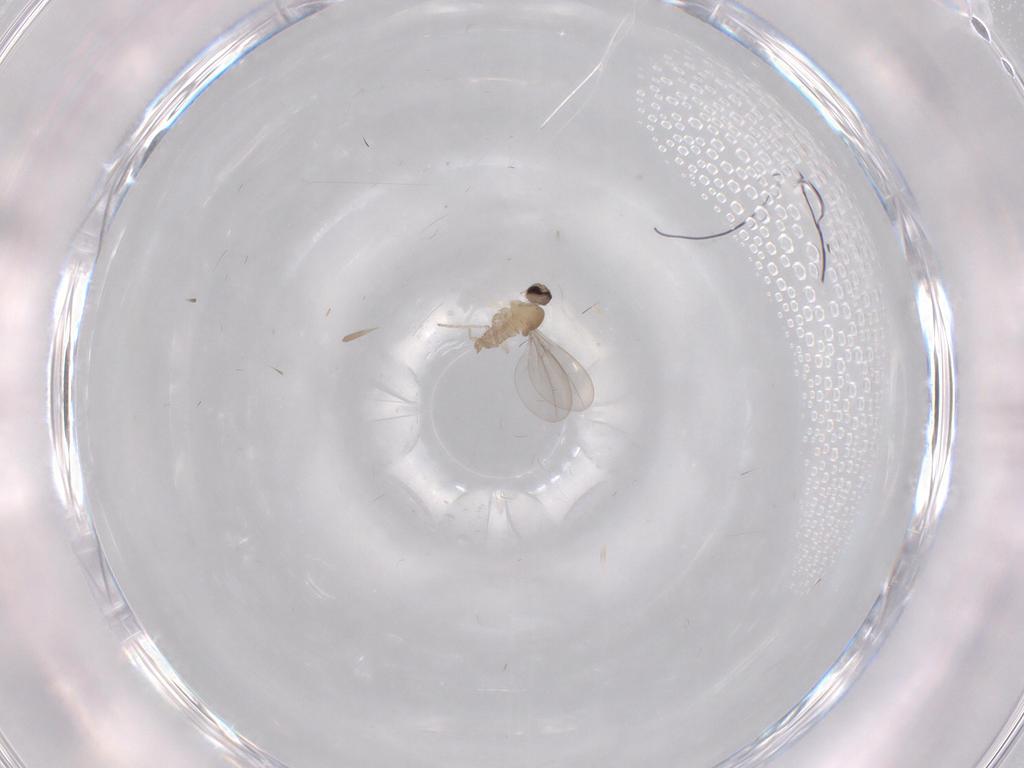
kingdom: Animalia
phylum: Arthropoda
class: Insecta
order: Diptera
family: Cecidomyiidae
